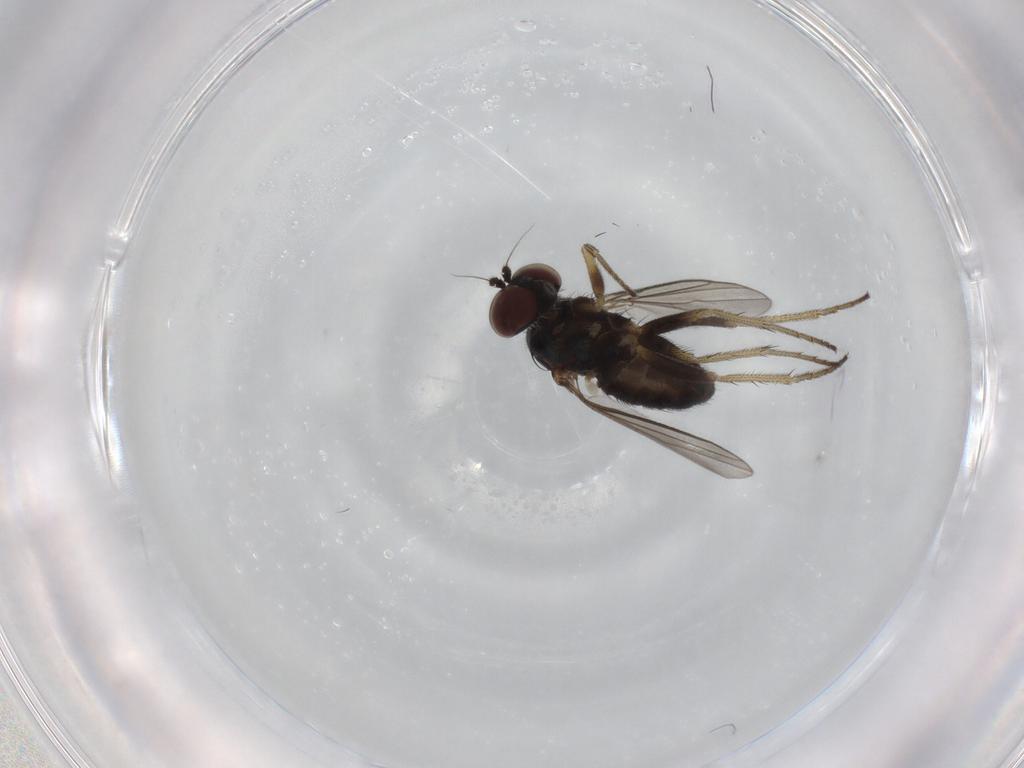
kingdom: Animalia
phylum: Arthropoda
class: Insecta
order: Diptera
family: Dolichopodidae
